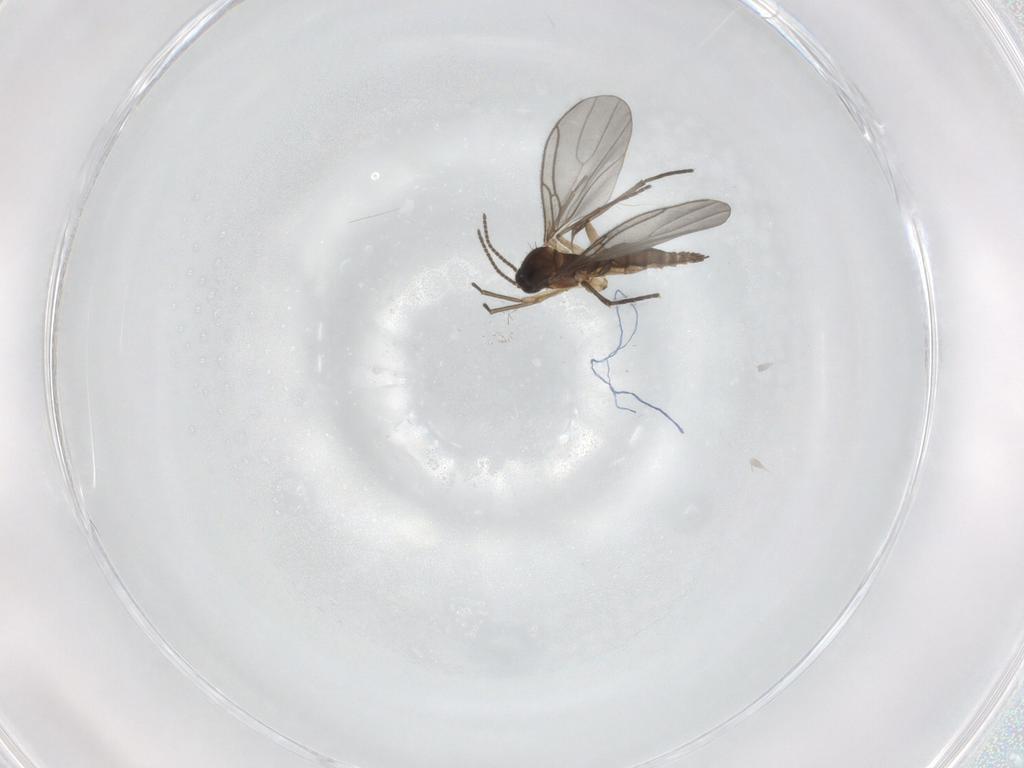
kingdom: Animalia
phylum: Arthropoda
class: Insecta
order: Diptera
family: Sciaridae
